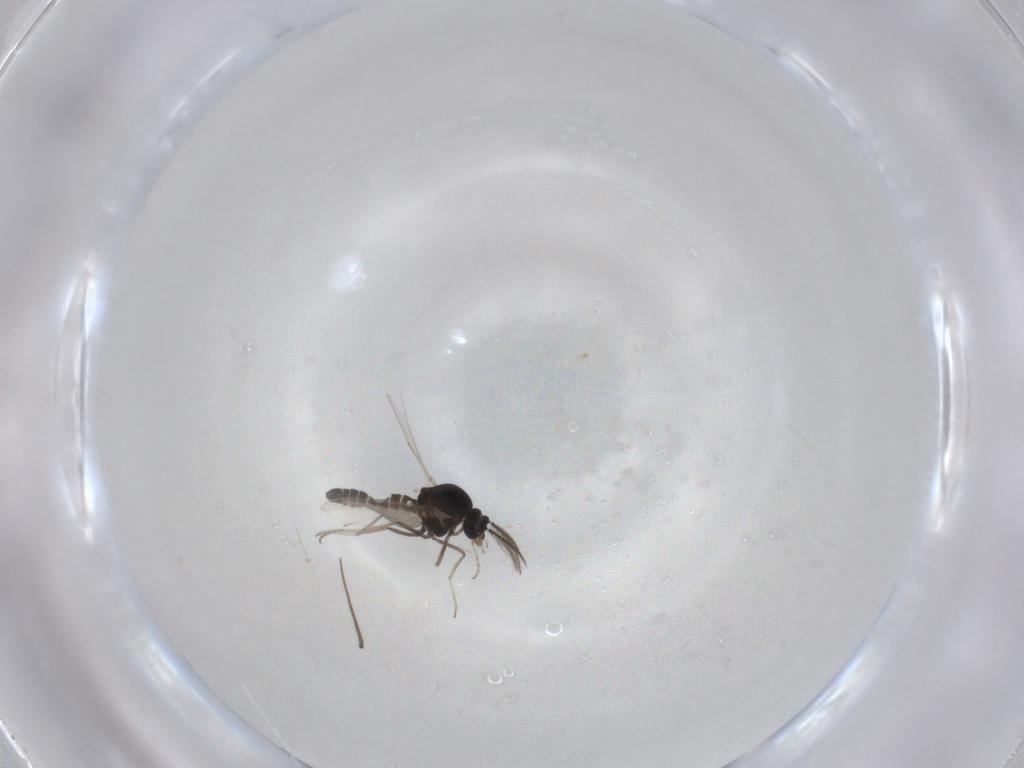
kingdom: Animalia
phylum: Arthropoda
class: Insecta
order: Diptera
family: Ceratopogonidae
